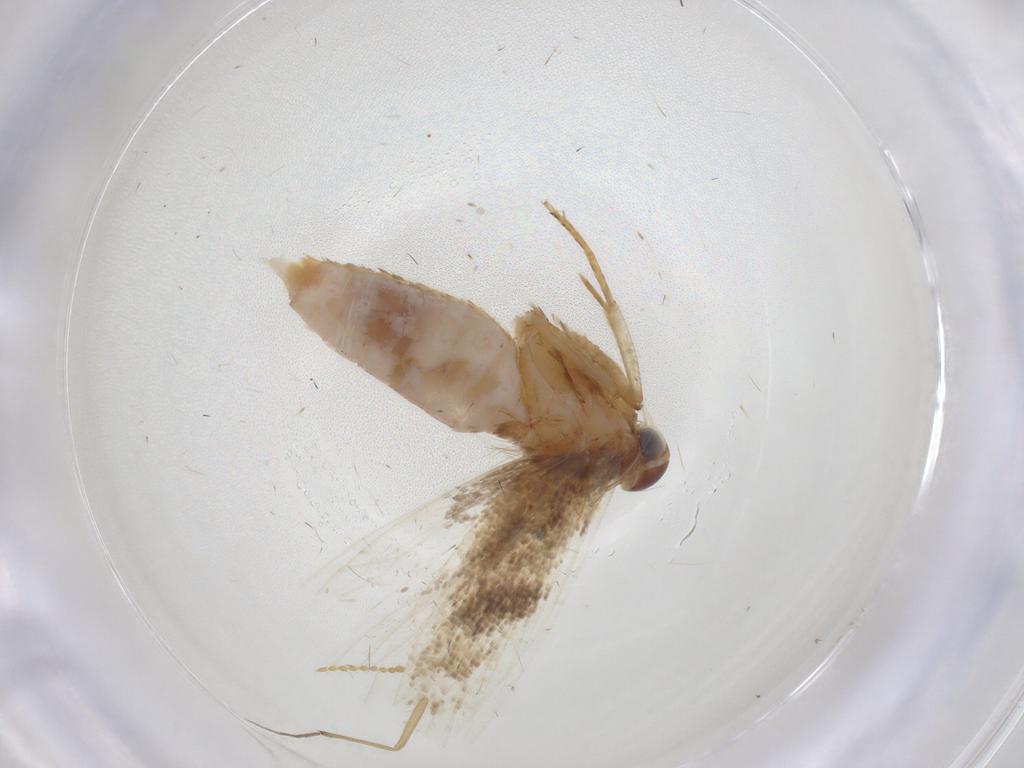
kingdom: Animalia
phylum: Arthropoda
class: Insecta
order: Lepidoptera
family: Gelechiidae
